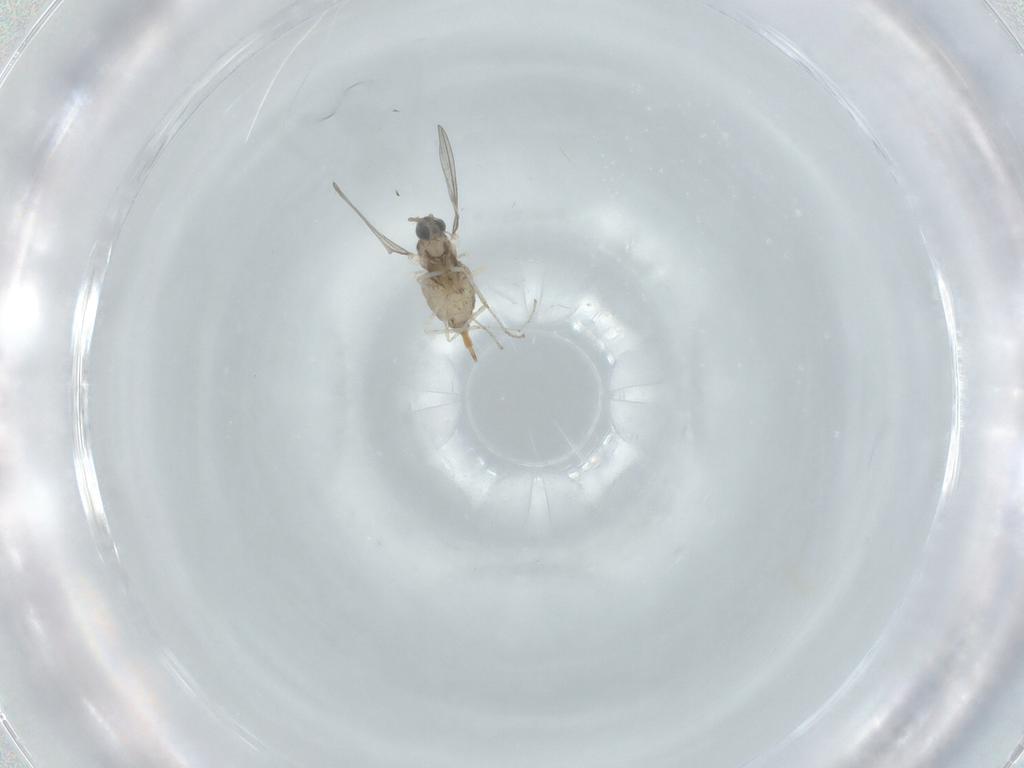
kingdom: Animalia
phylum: Arthropoda
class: Insecta
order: Diptera
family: Cecidomyiidae
